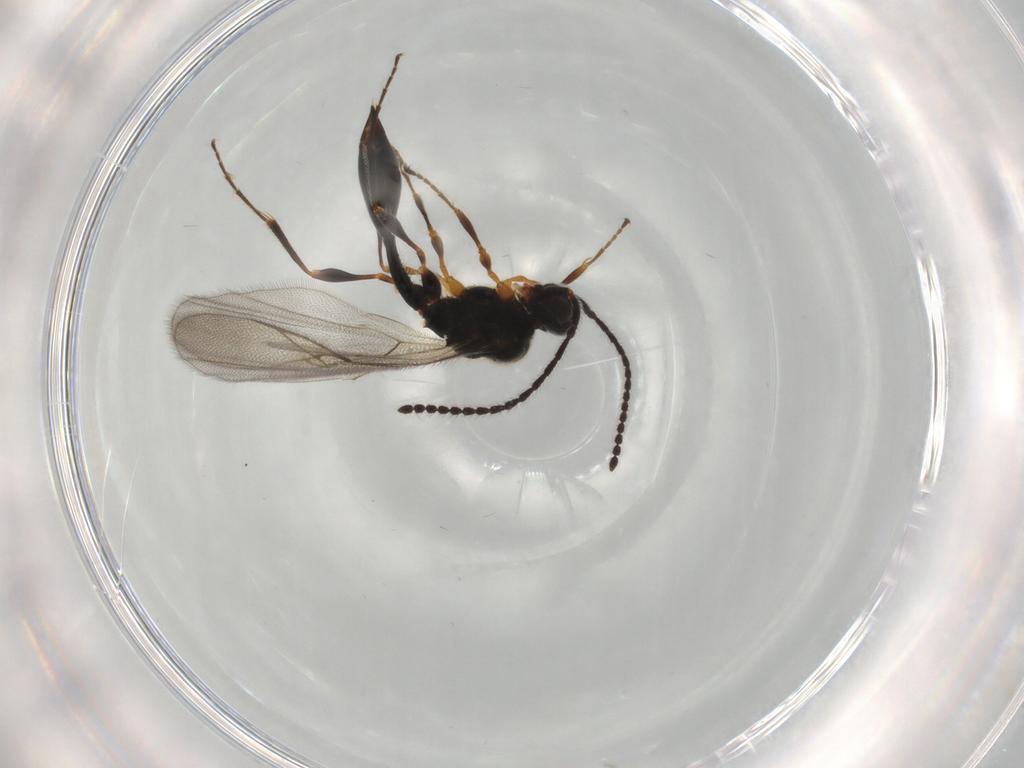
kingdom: Animalia
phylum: Arthropoda
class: Insecta
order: Hymenoptera
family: Diapriidae
